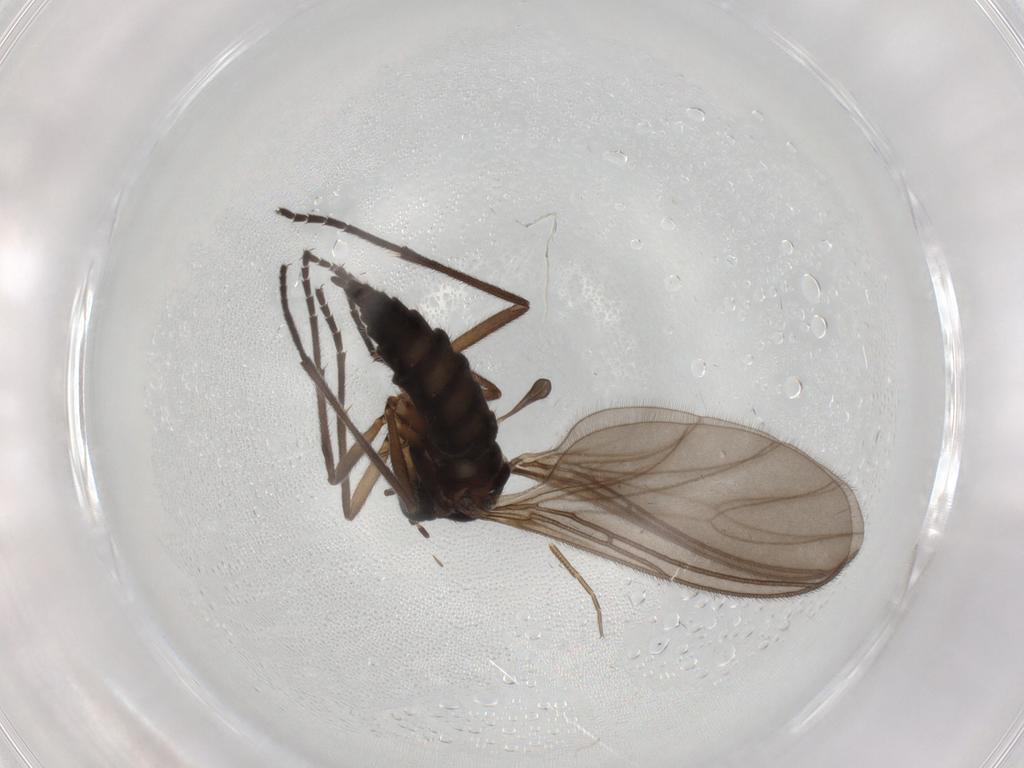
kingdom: Animalia
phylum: Arthropoda
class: Insecta
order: Diptera
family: Sciaridae
